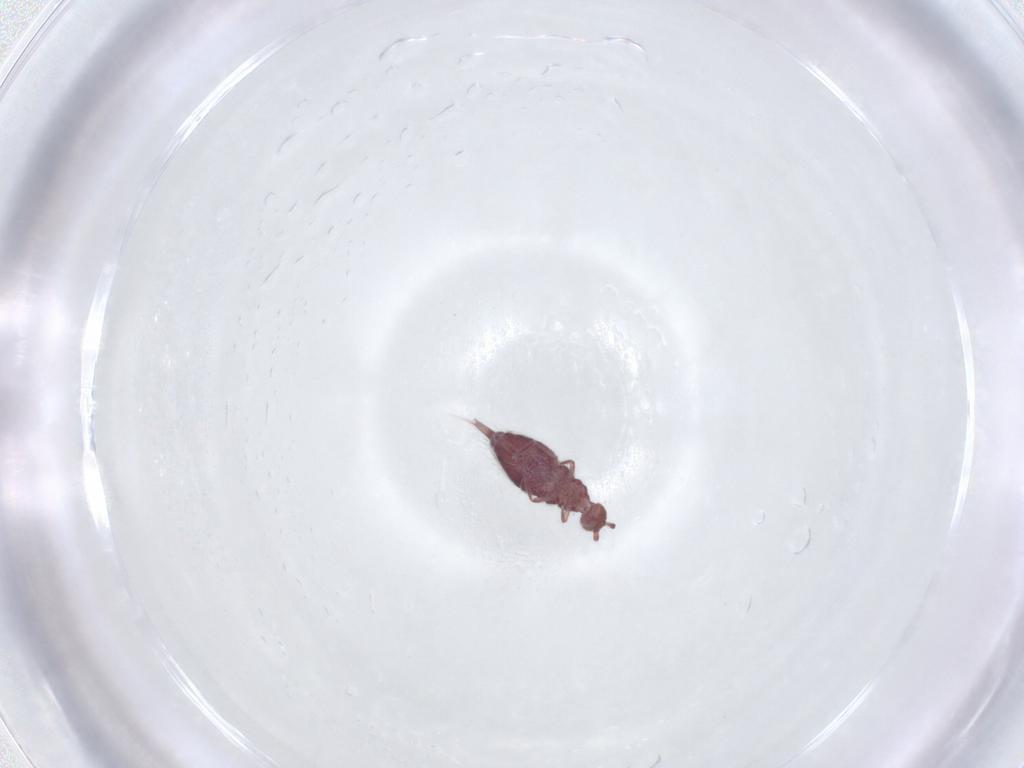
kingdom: Animalia
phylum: Arthropoda
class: Collembola
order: Entomobryomorpha
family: Entomobryidae
